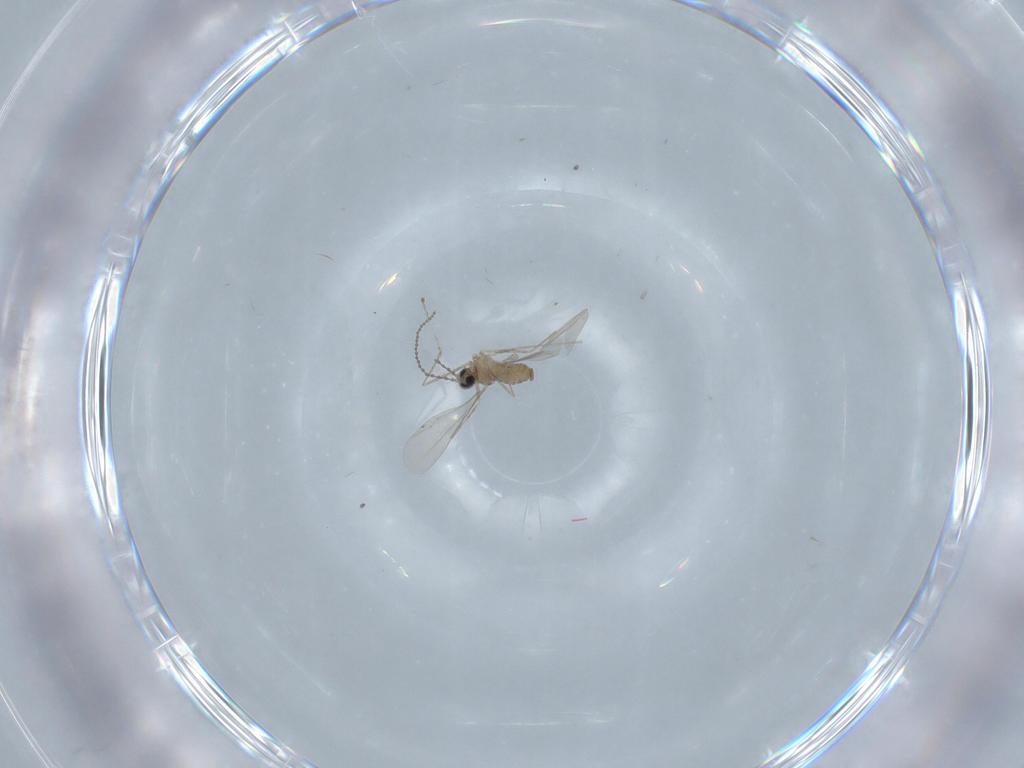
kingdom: Animalia
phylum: Arthropoda
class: Insecta
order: Diptera
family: Cecidomyiidae
